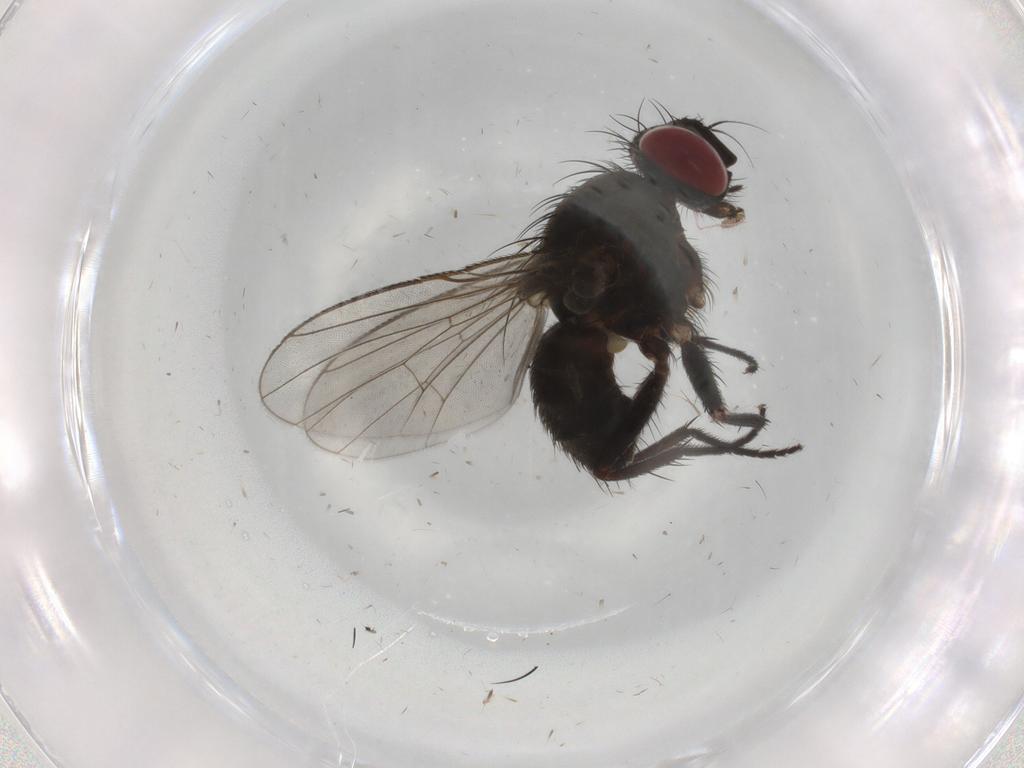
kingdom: Animalia
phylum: Arthropoda
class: Insecta
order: Diptera
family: Muscidae
